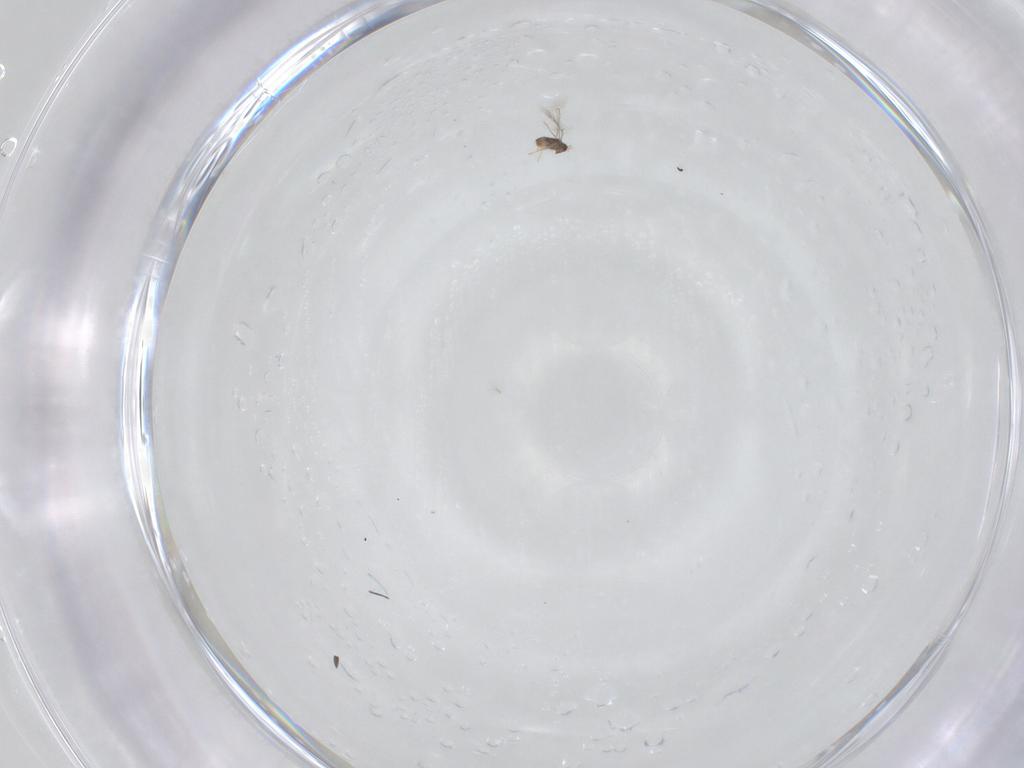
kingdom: Animalia
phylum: Arthropoda
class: Insecta
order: Hymenoptera
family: Mymaridae
